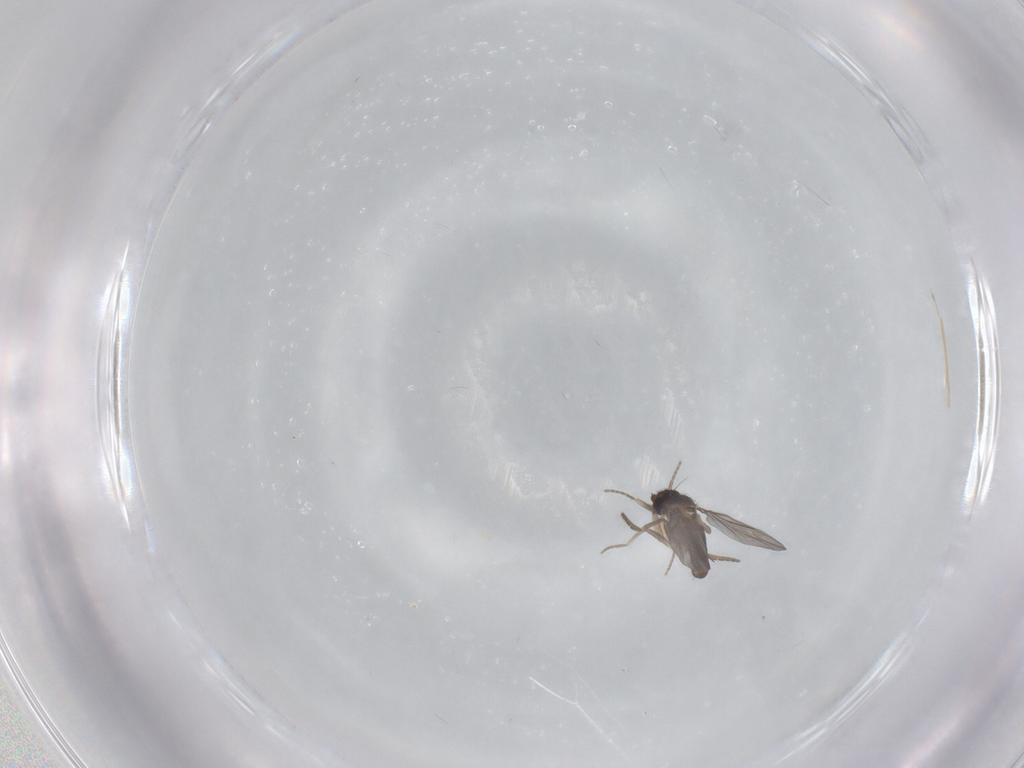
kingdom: Animalia
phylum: Arthropoda
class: Insecta
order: Diptera
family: Phoridae
